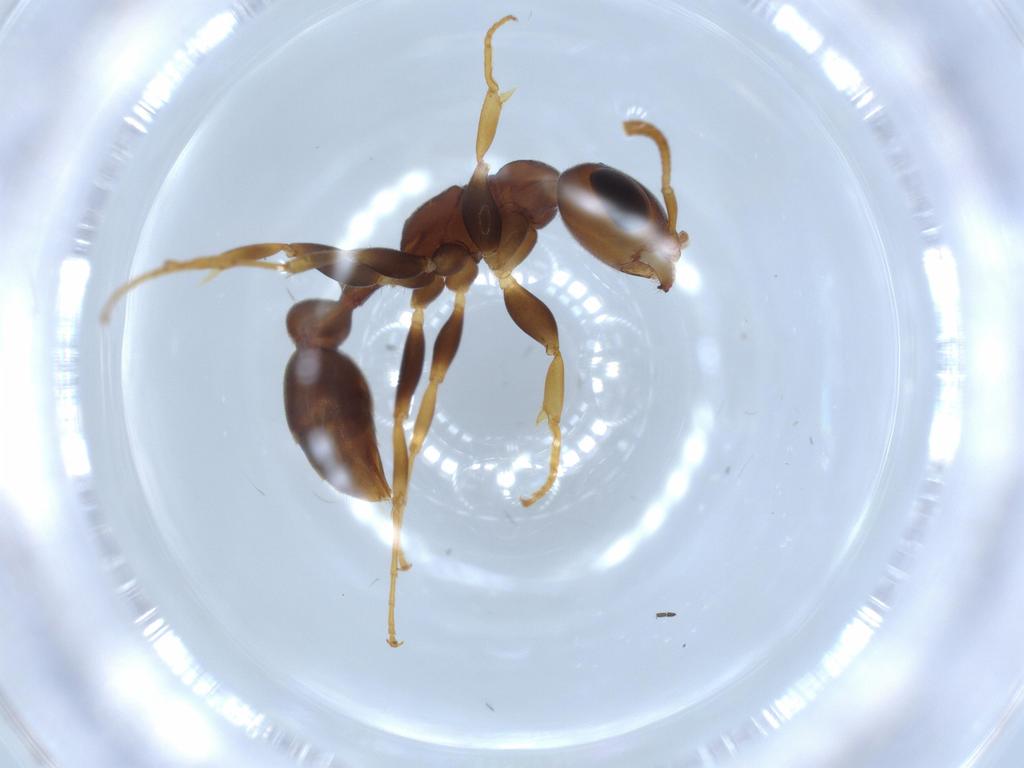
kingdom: Animalia
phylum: Arthropoda
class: Insecta
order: Hymenoptera
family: Formicidae
